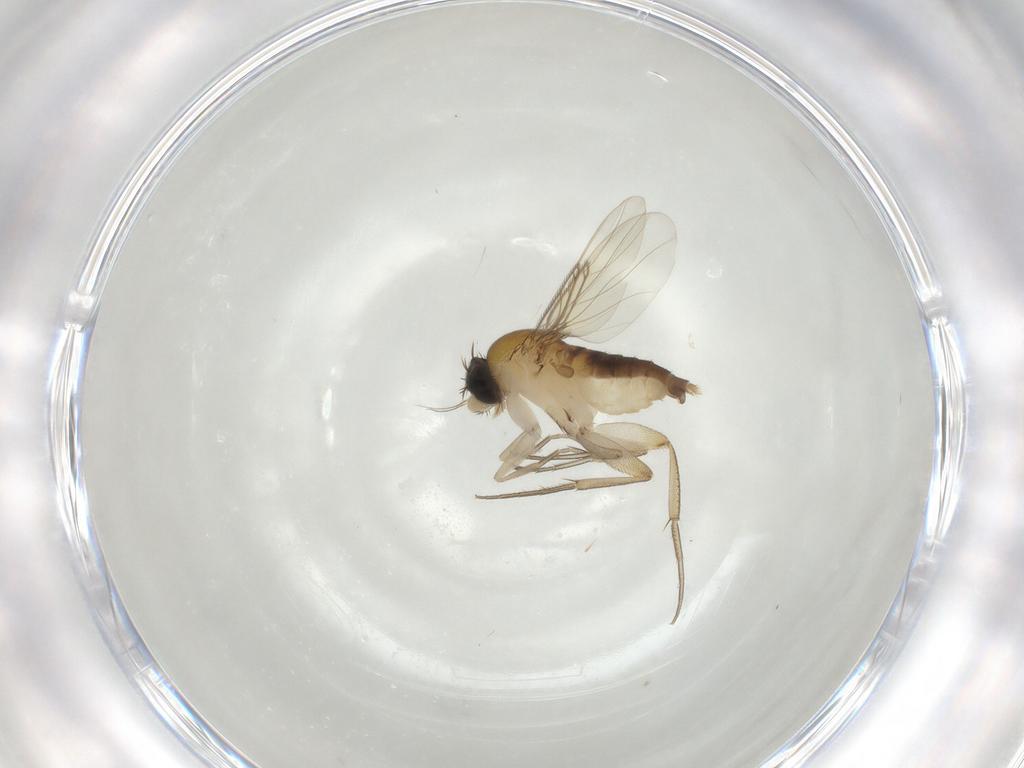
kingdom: Animalia
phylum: Arthropoda
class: Insecta
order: Diptera
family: Phoridae
